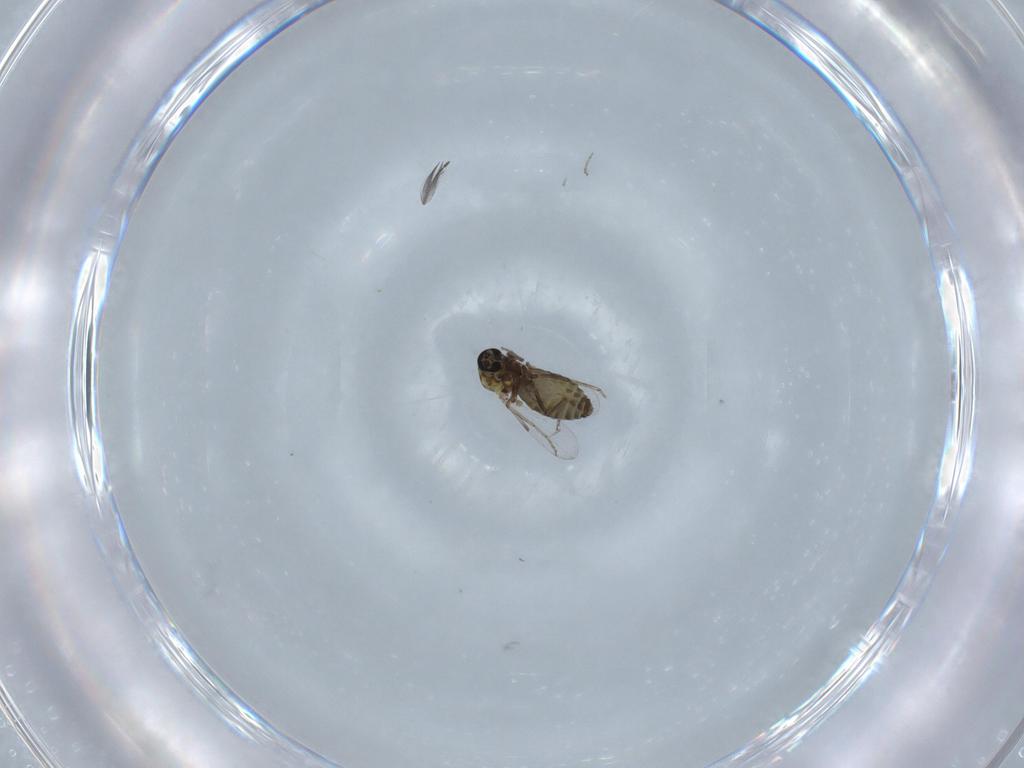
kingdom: Animalia
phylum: Arthropoda
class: Insecta
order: Diptera
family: Ceratopogonidae
